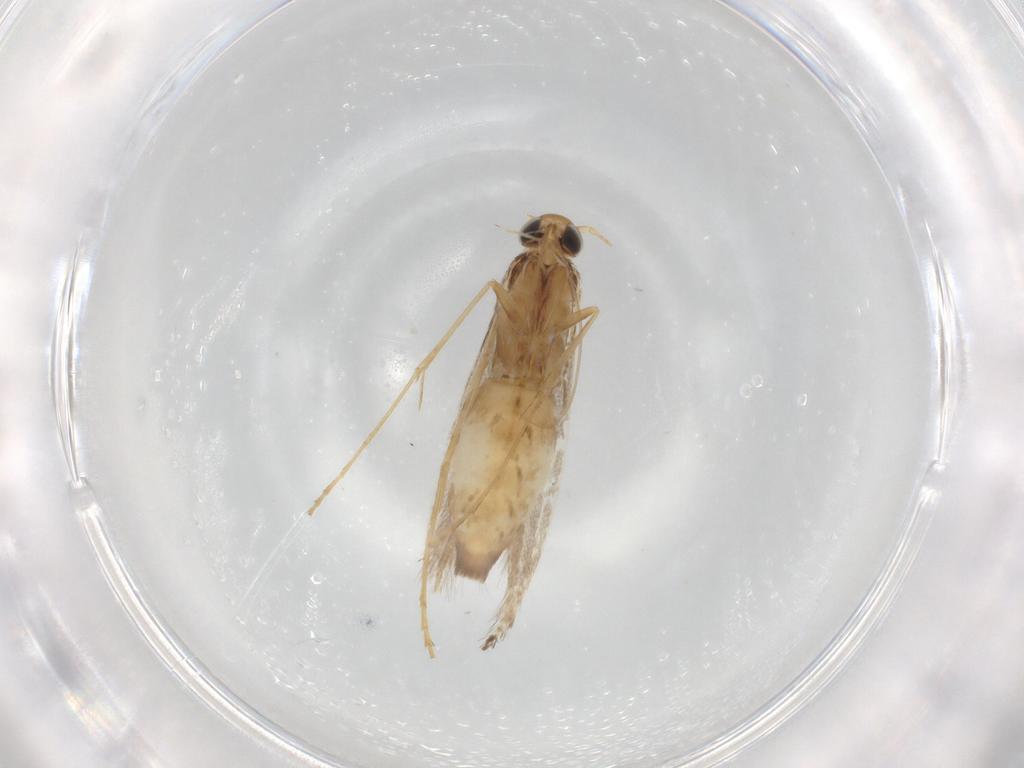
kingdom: Animalia
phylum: Arthropoda
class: Insecta
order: Lepidoptera
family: Gracillariidae
